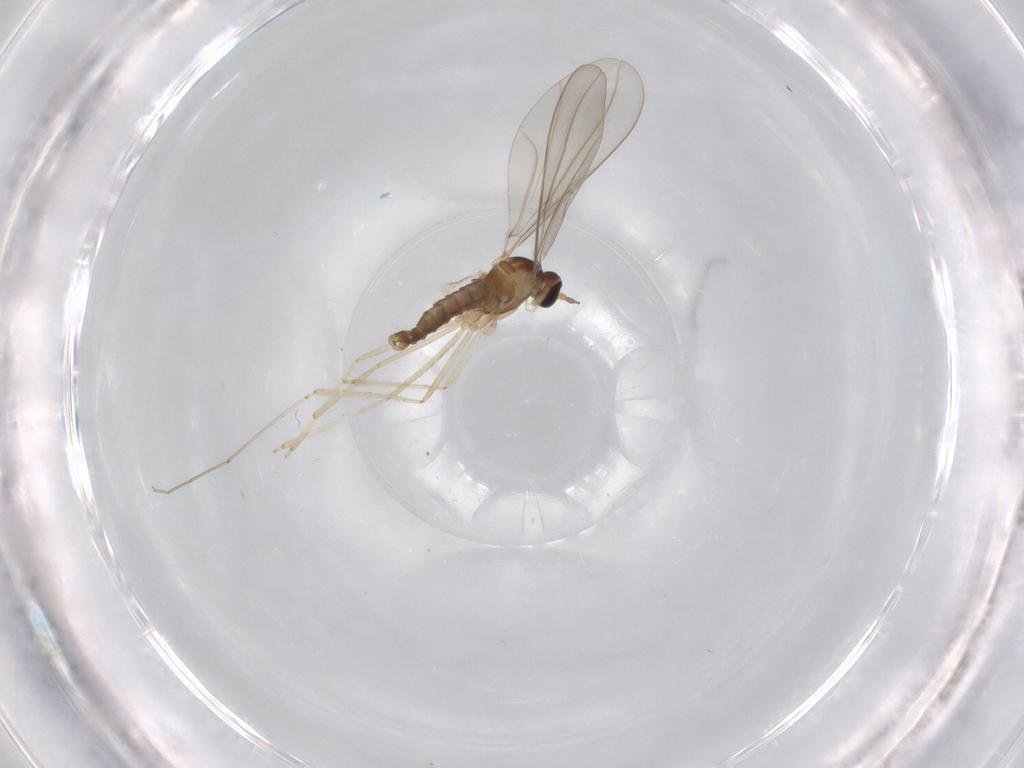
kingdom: Animalia
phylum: Arthropoda
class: Insecta
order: Diptera
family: Cecidomyiidae
